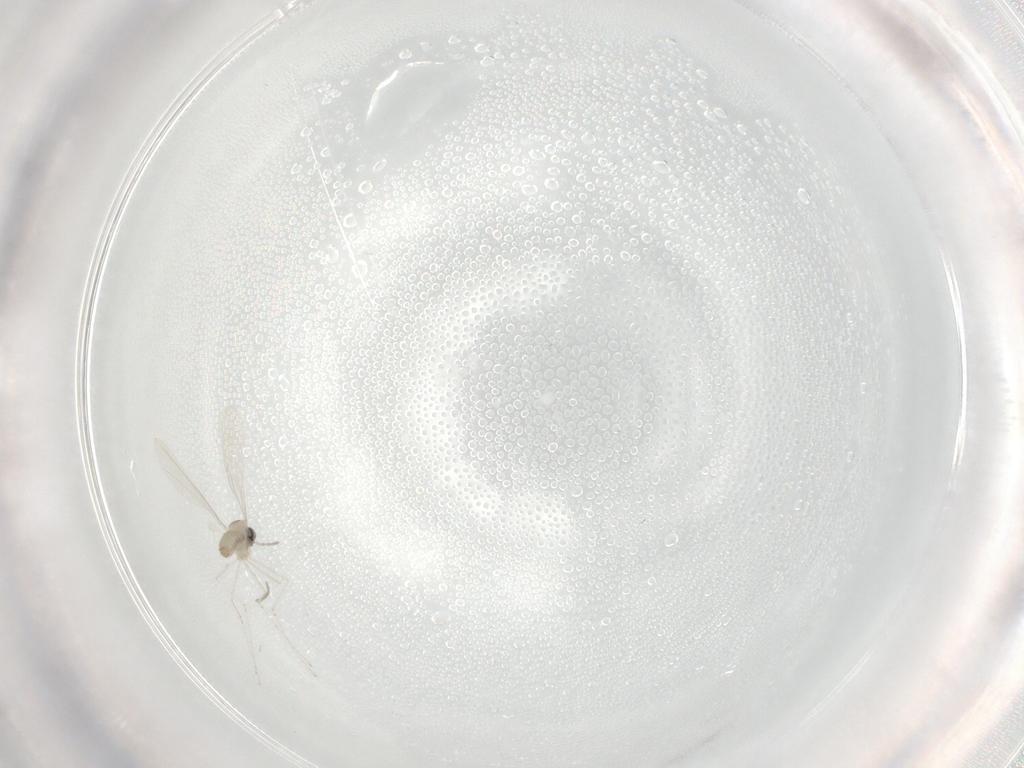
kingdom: Animalia
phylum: Arthropoda
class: Insecta
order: Diptera
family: Cecidomyiidae
